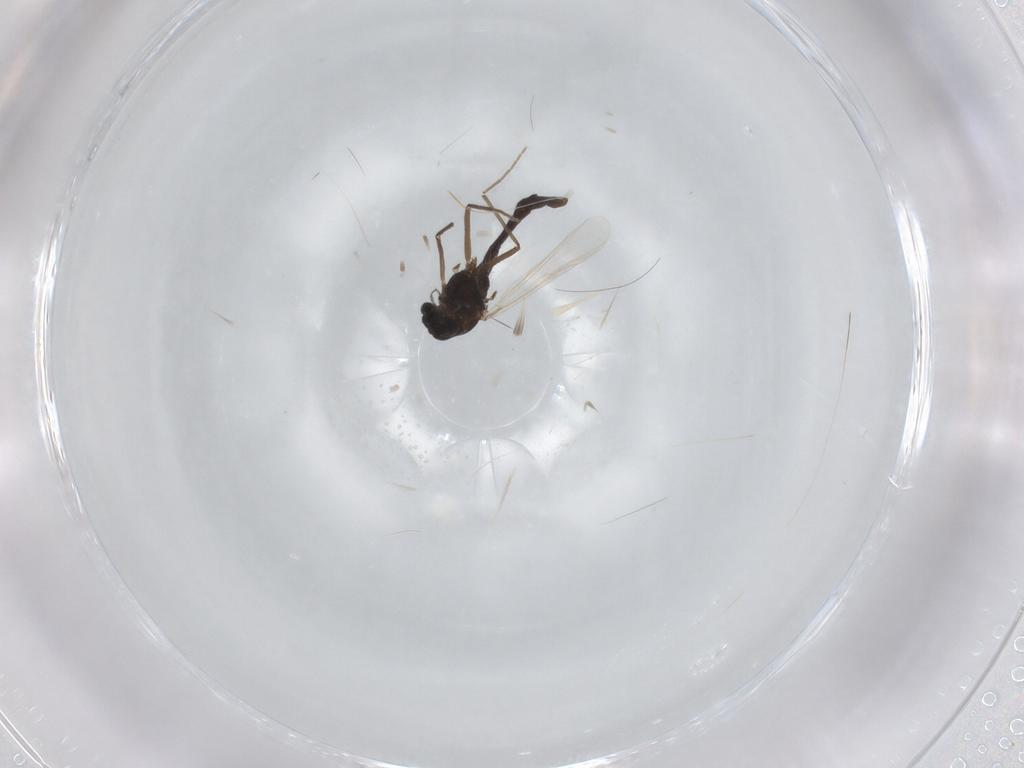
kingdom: Animalia
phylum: Arthropoda
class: Insecta
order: Diptera
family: Chironomidae
